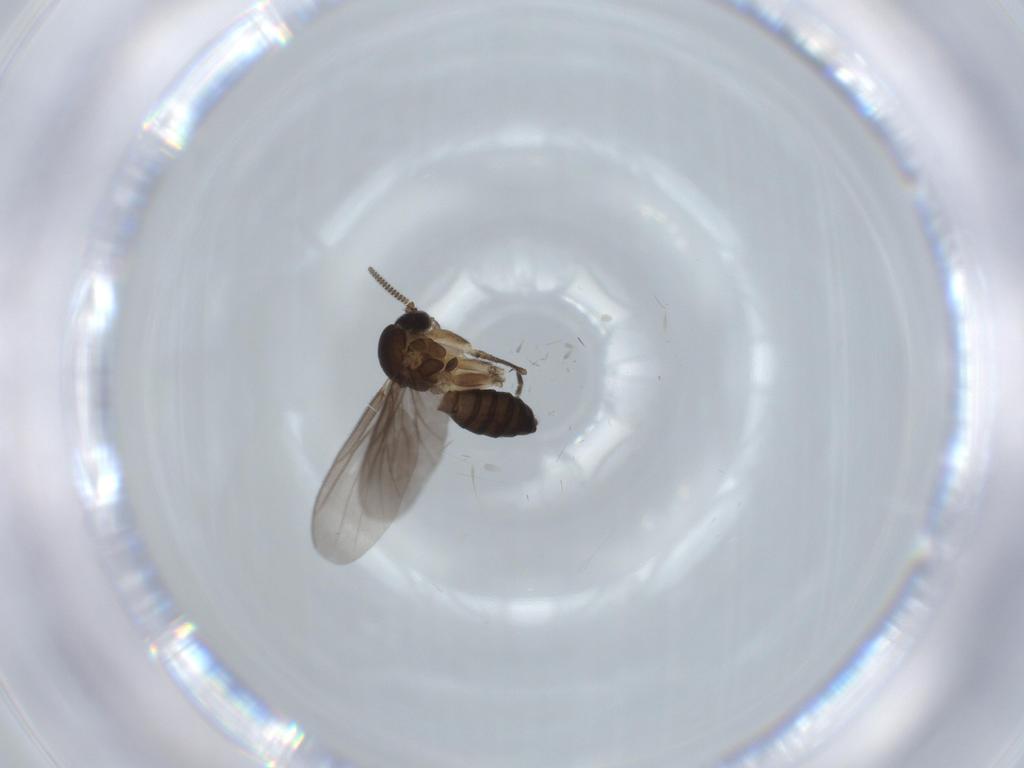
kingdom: Animalia
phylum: Arthropoda
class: Insecta
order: Diptera
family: Mycetophilidae
